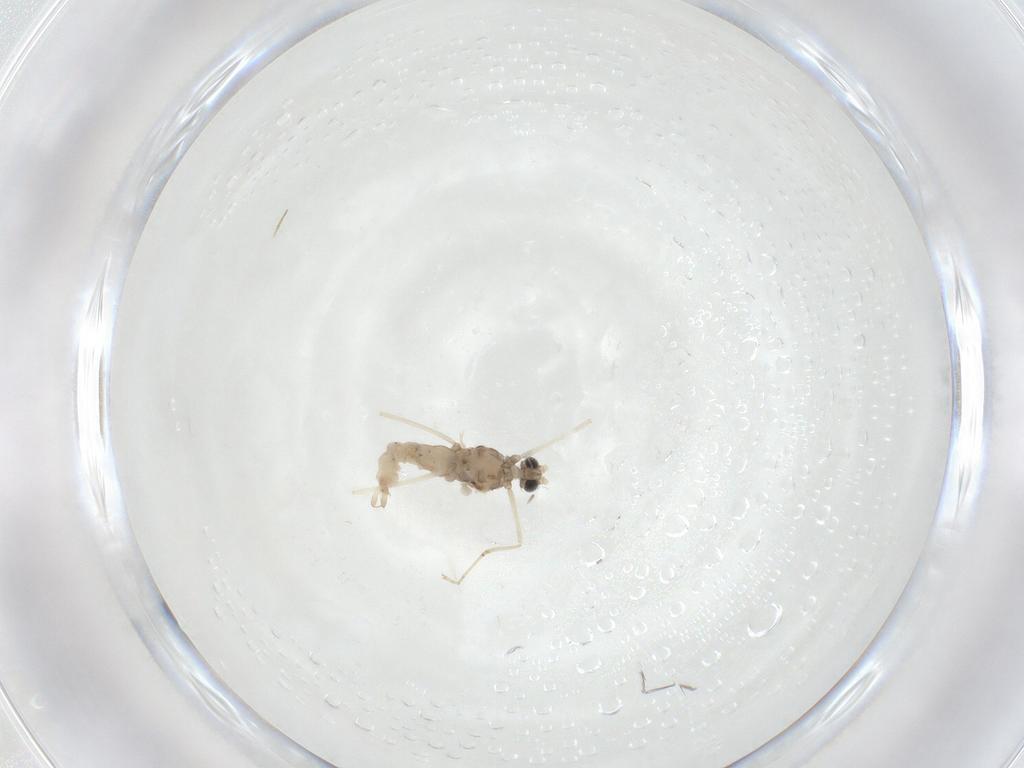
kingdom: Animalia
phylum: Arthropoda
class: Insecta
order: Diptera
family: Cecidomyiidae
